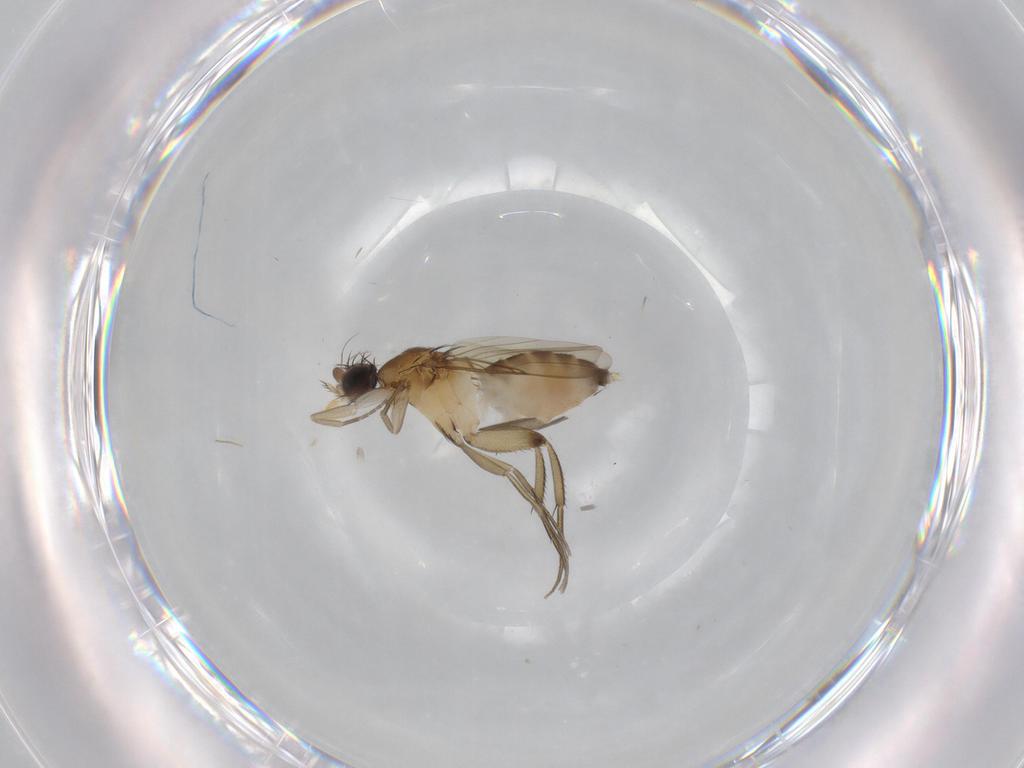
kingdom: Animalia
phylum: Arthropoda
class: Insecta
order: Diptera
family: Phoridae
